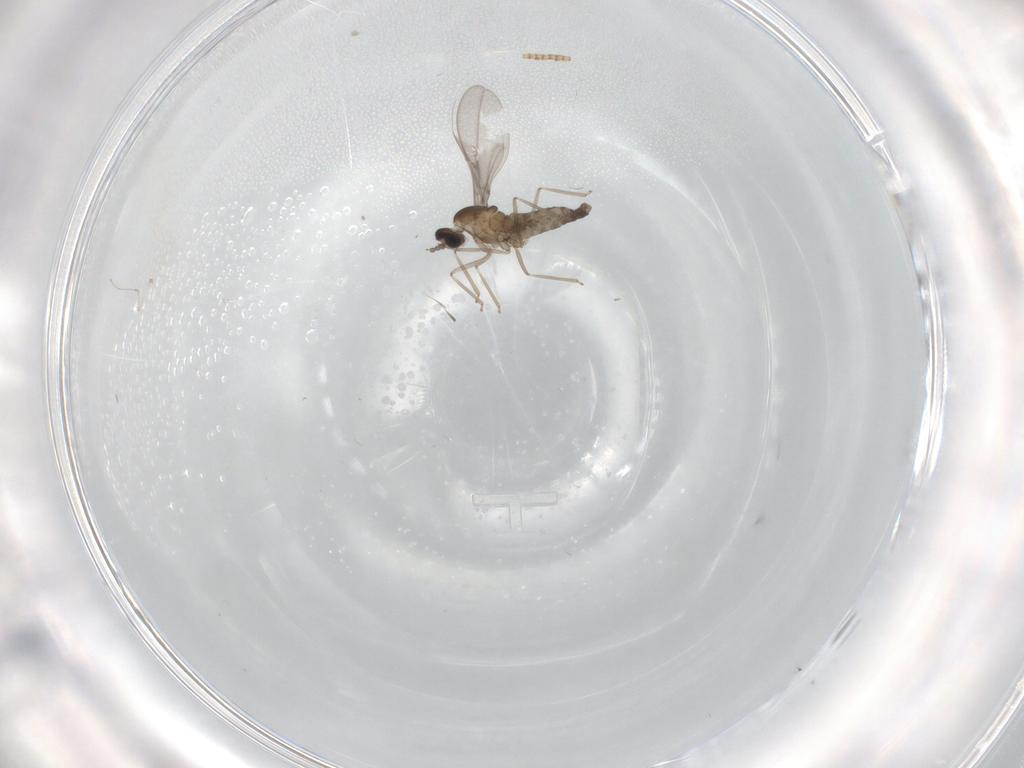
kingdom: Animalia
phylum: Arthropoda
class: Insecta
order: Diptera
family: Cecidomyiidae
